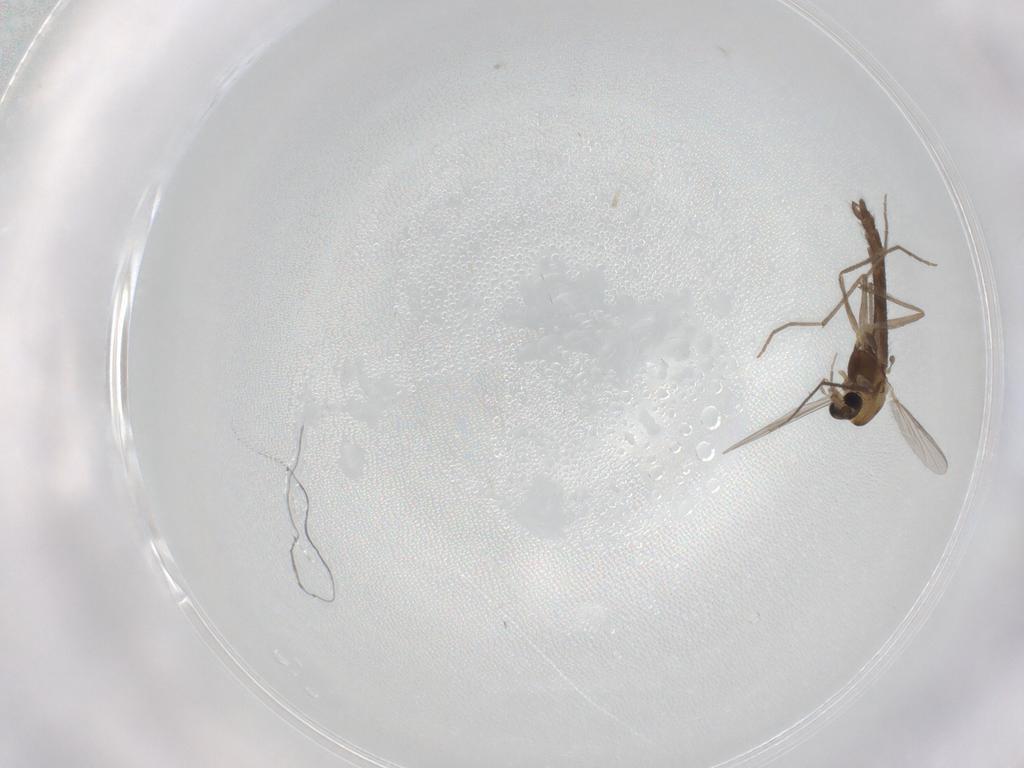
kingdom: Animalia
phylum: Arthropoda
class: Insecta
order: Diptera
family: Chironomidae
